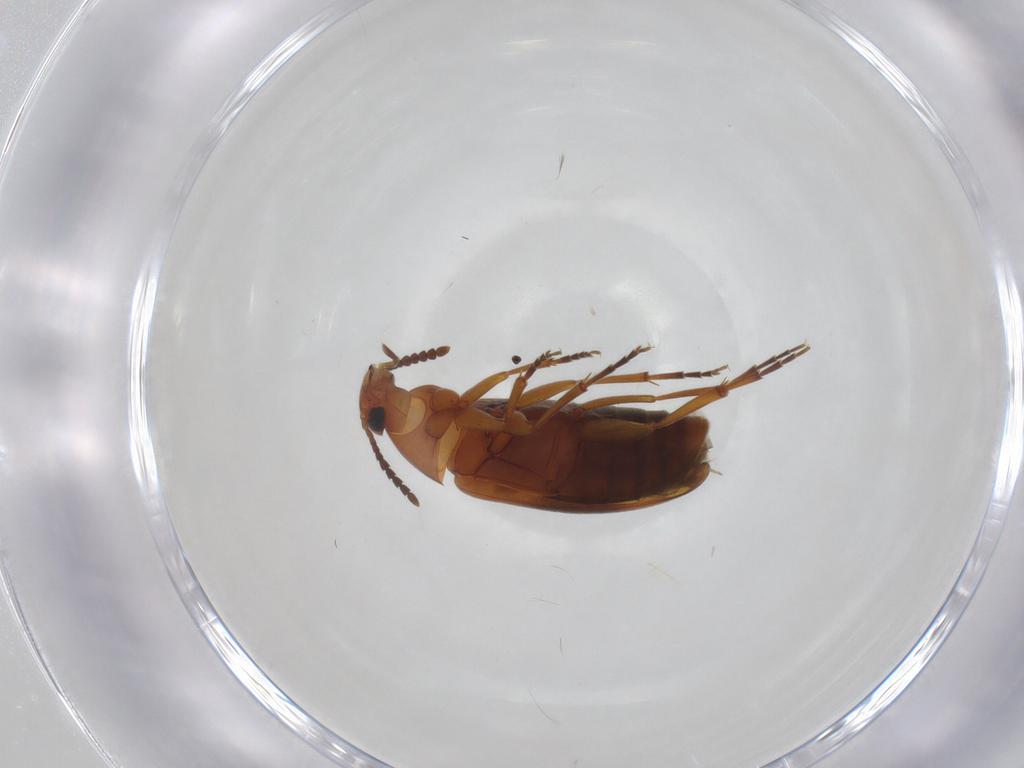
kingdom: Animalia
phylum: Arthropoda
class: Insecta
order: Coleoptera
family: Scraptiidae
